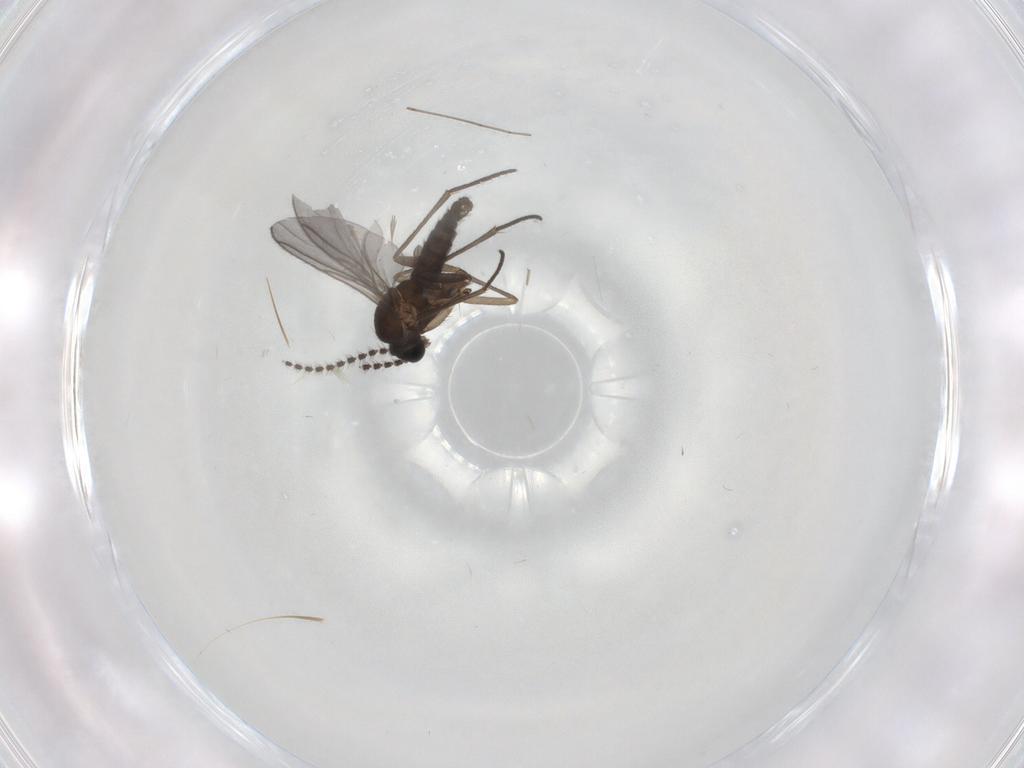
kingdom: Animalia
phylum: Arthropoda
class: Insecta
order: Diptera
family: Sciaridae
